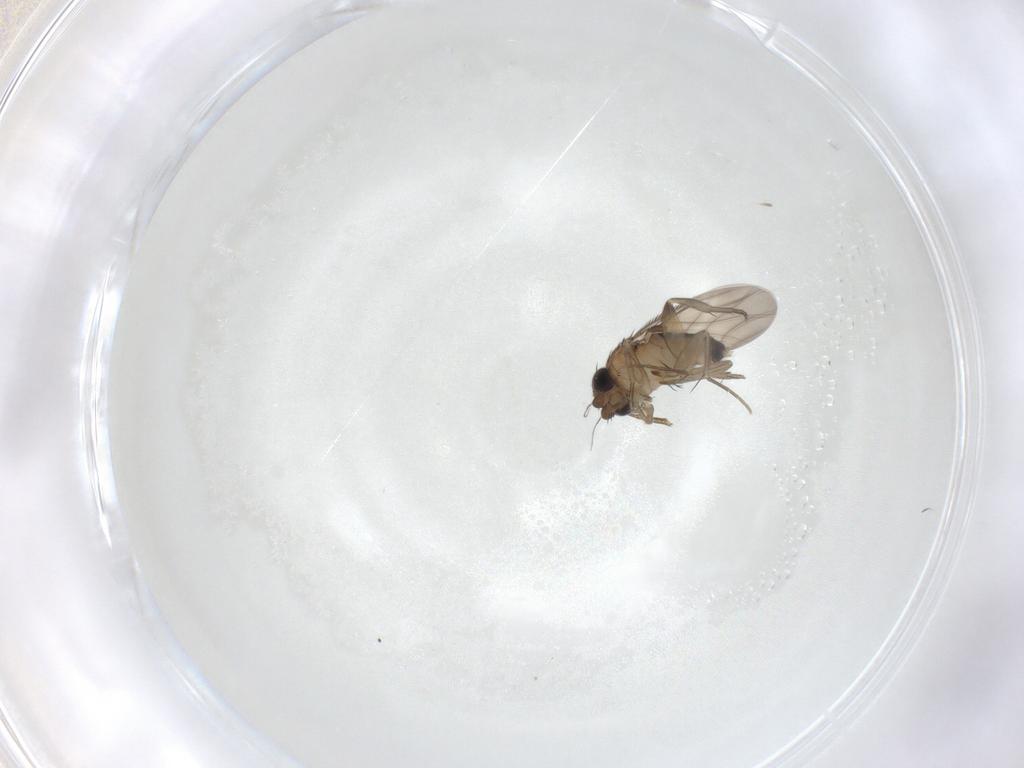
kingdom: Animalia
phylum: Arthropoda
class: Insecta
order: Diptera
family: Phoridae
